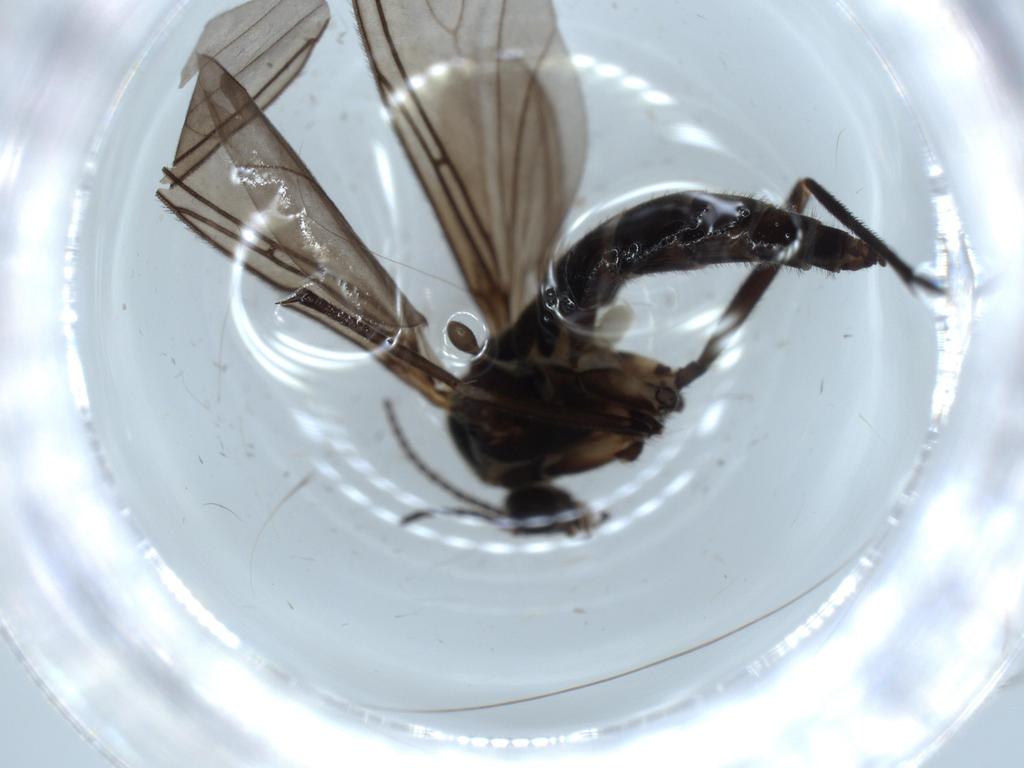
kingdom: Animalia
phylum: Arthropoda
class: Insecta
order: Diptera
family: Sciaridae
